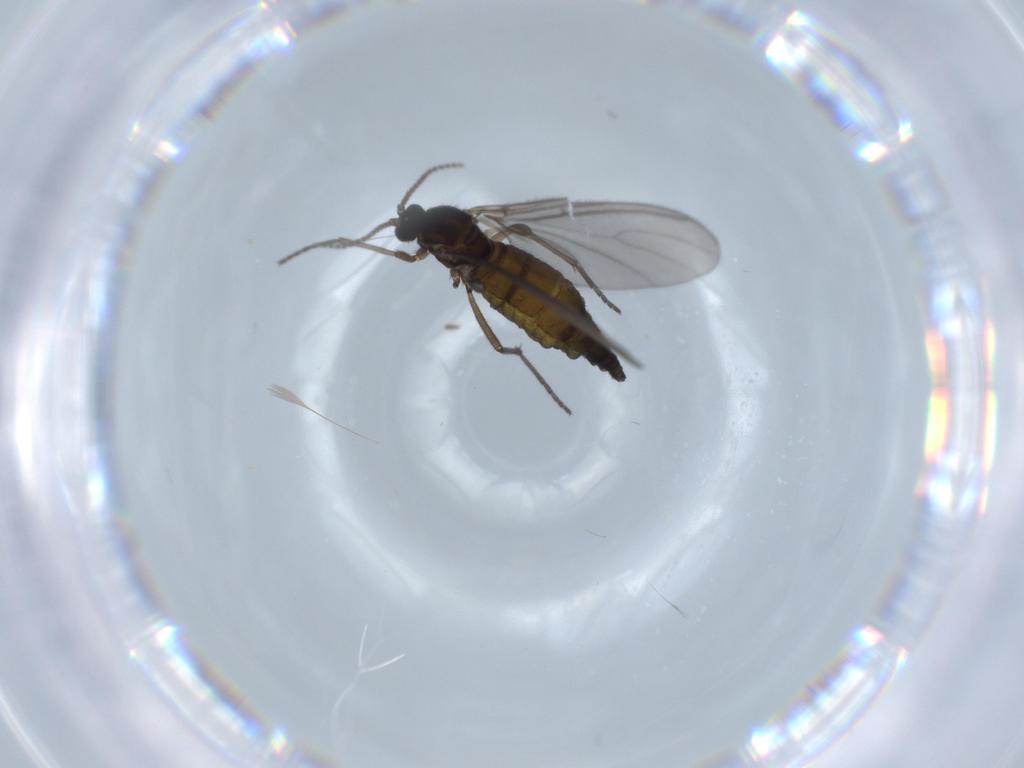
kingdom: Animalia
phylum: Arthropoda
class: Insecta
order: Diptera
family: Sciaridae
